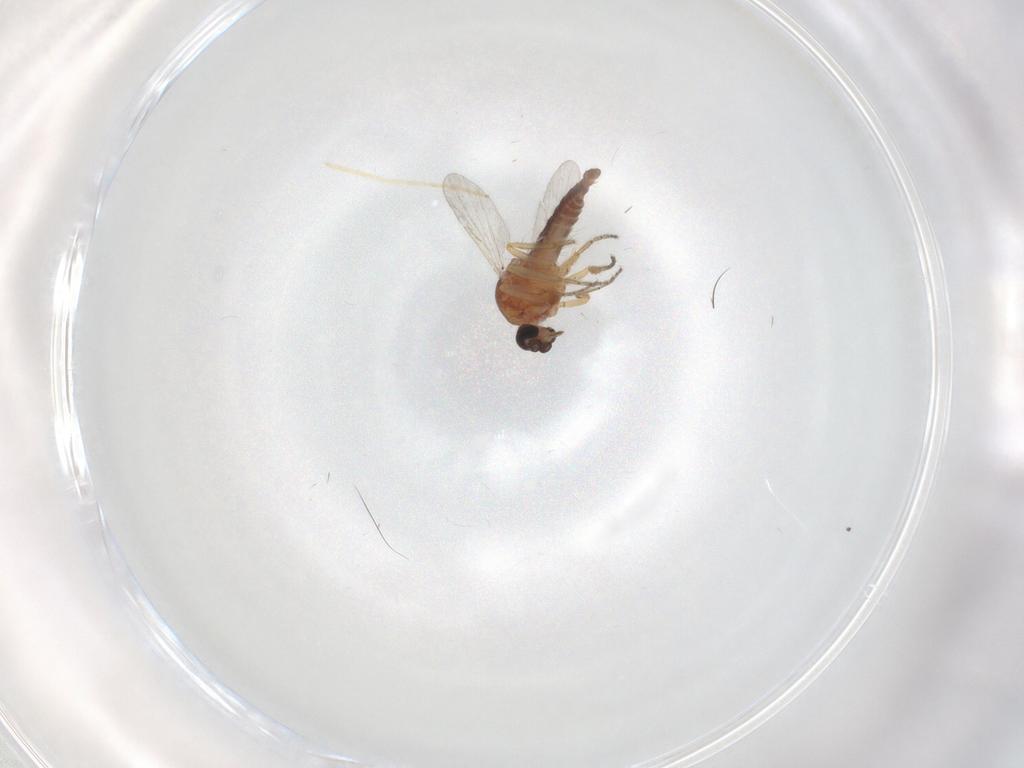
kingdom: Animalia
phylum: Arthropoda
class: Insecta
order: Diptera
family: Ceratopogonidae
